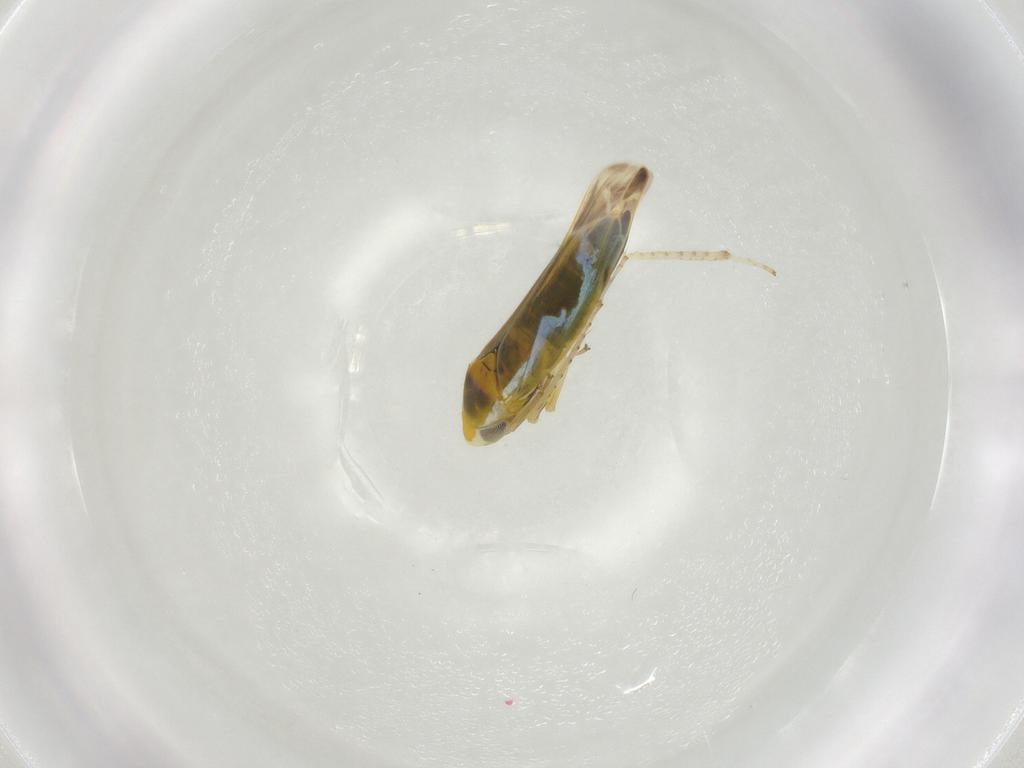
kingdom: Animalia
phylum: Arthropoda
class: Insecta
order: Hemiptera
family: Cicadellidae
